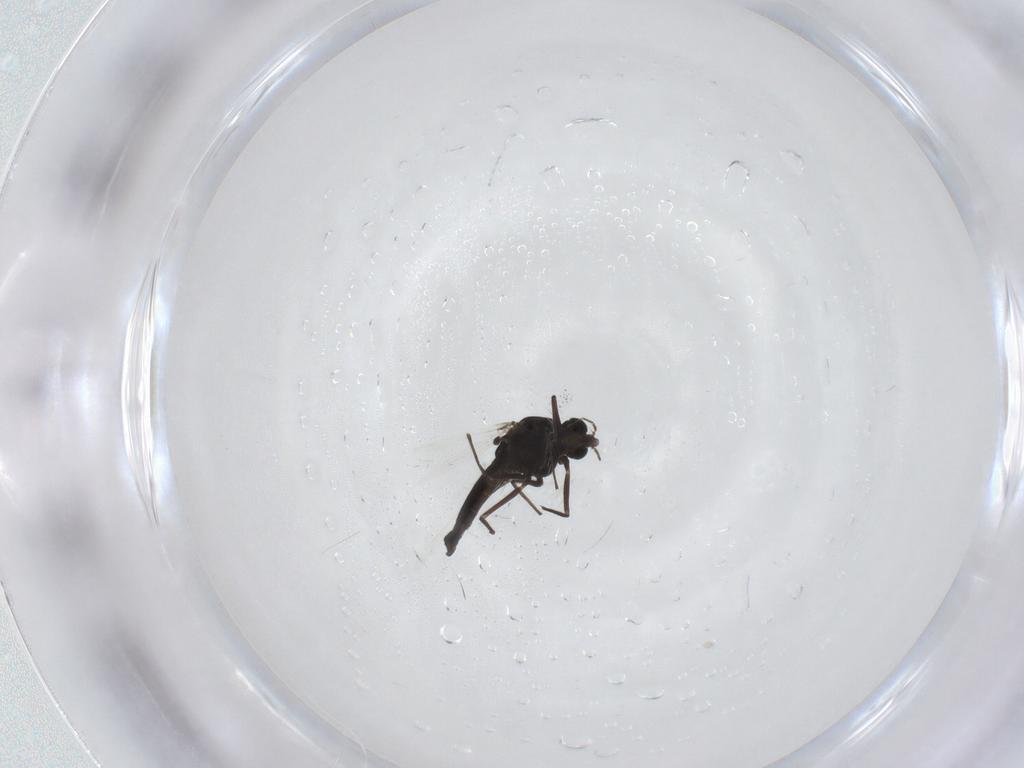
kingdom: Animalia
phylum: Arthropoda
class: Insecta
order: Diptera
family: Chironomidae
